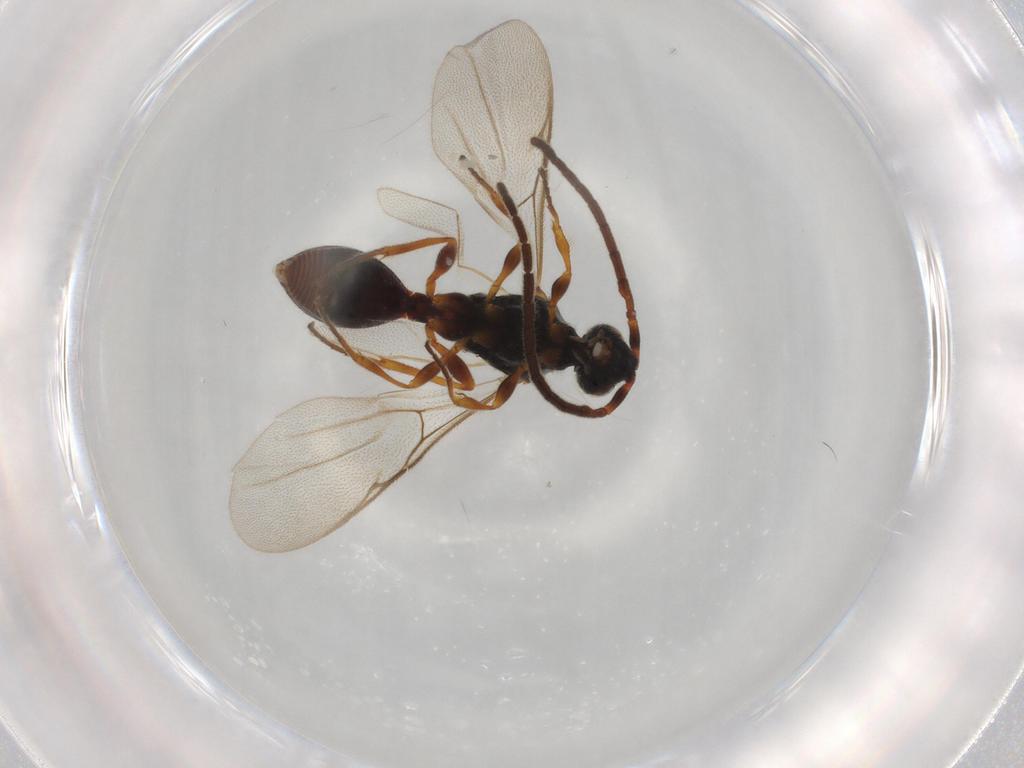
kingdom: Animalia
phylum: Arthropoda
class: Insecta
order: Hymenoptera
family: Diapriidae
